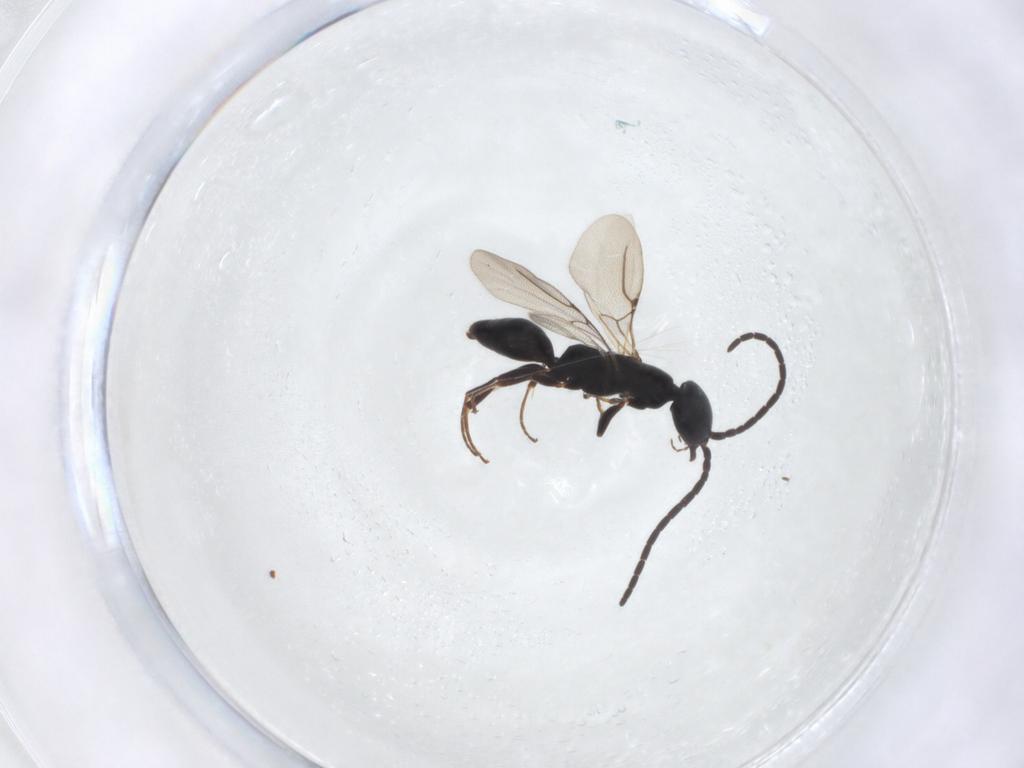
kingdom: Animalia
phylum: Arthropoda
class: Insecta
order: Hymenoptera
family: Bethylidae
